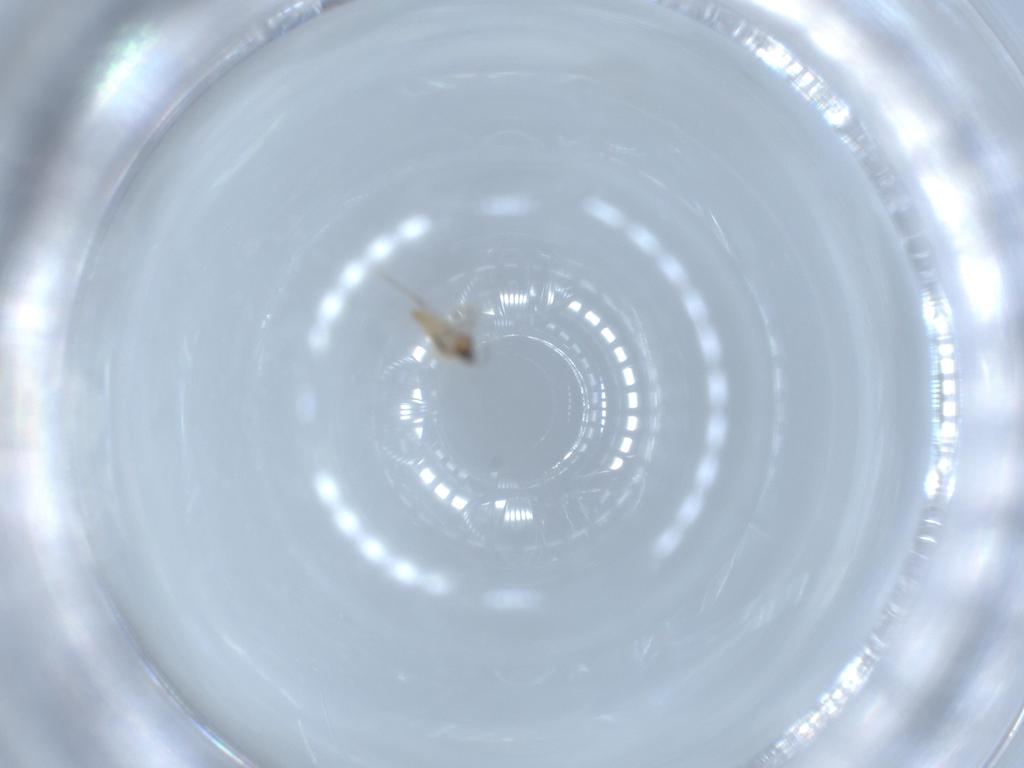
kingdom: Animalia
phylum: Arthropoda
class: Insecta
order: Diptera
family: Cecidomyiidae
